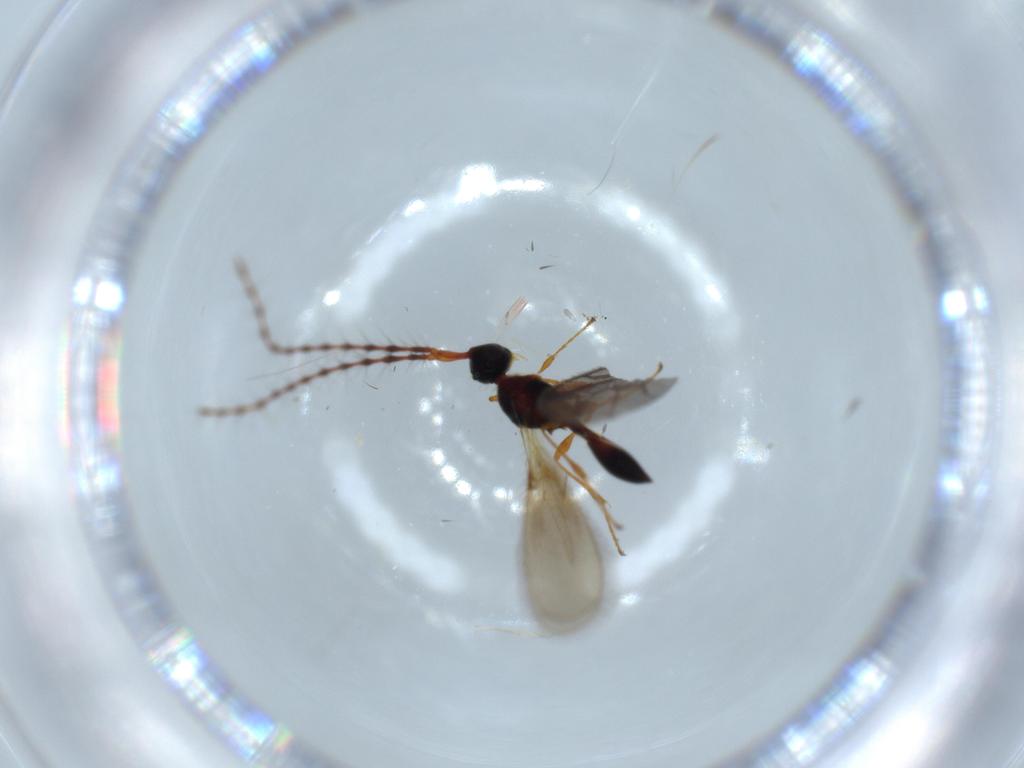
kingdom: Animalia
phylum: Arthropoda
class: Insecta
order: Hymenoptera
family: Diapriidae
